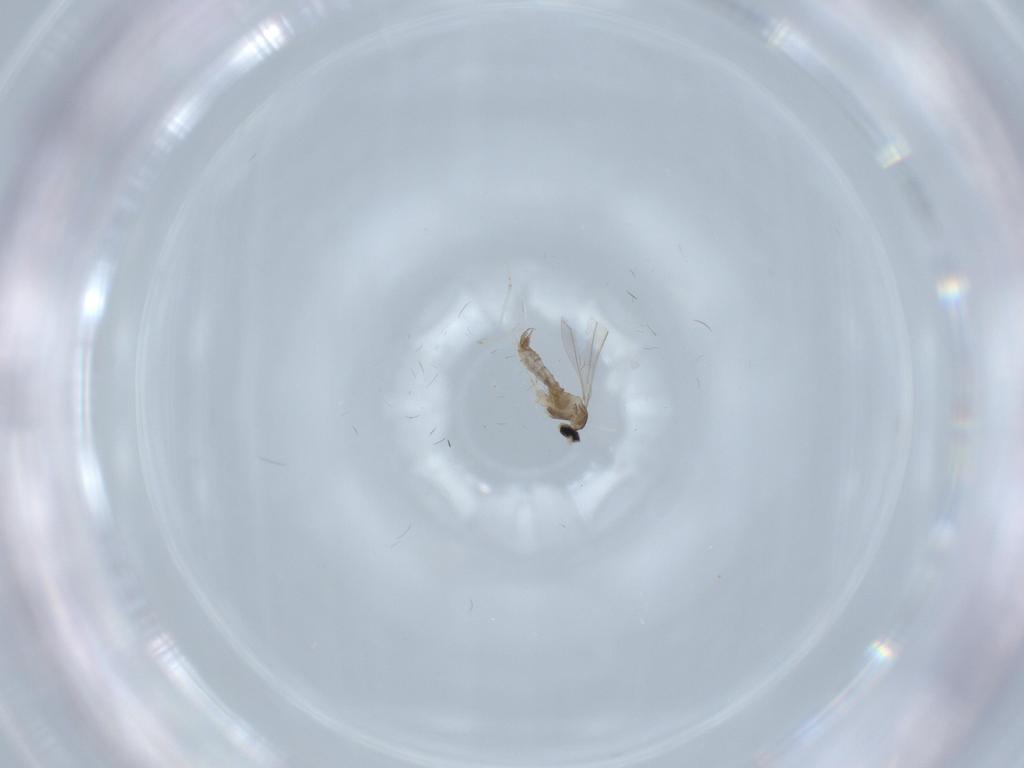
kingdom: Animalia
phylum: Arthropoda
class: Insecta
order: Diptera
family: Cecidomyiidae
